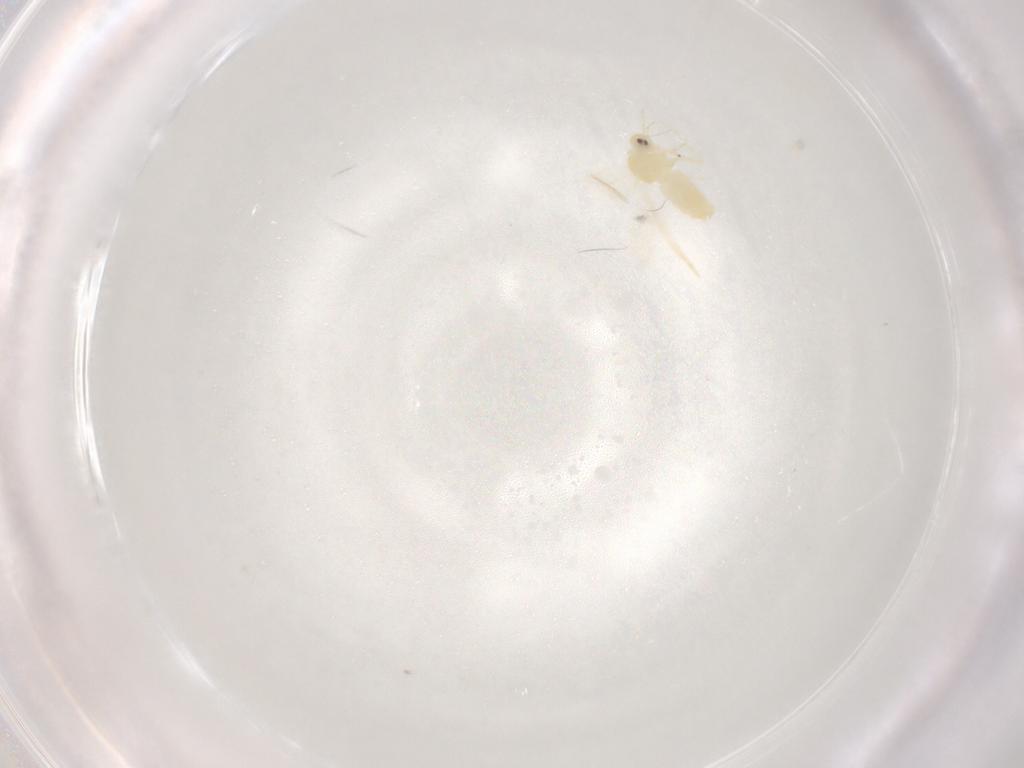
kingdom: Animalia
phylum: Arthropoda
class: Insecta
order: Hemiptera
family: Aleyrodidae
